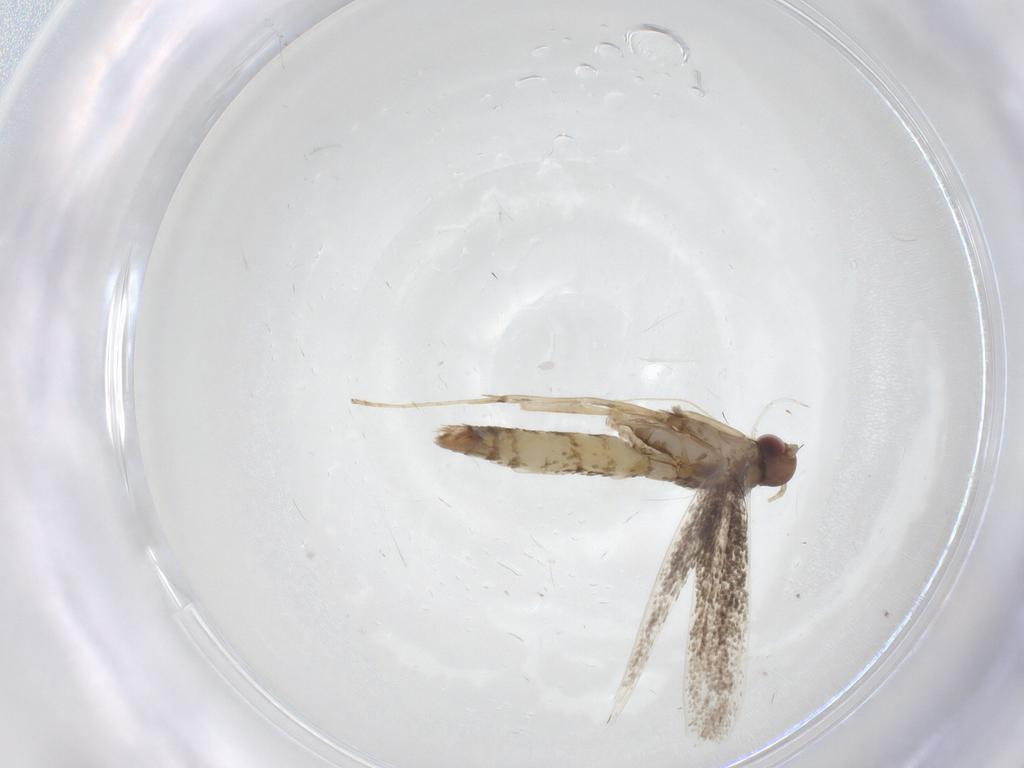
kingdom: Animalia
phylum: Arthropoda
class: Insecta
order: Lepidoptera
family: Gracillariidae
